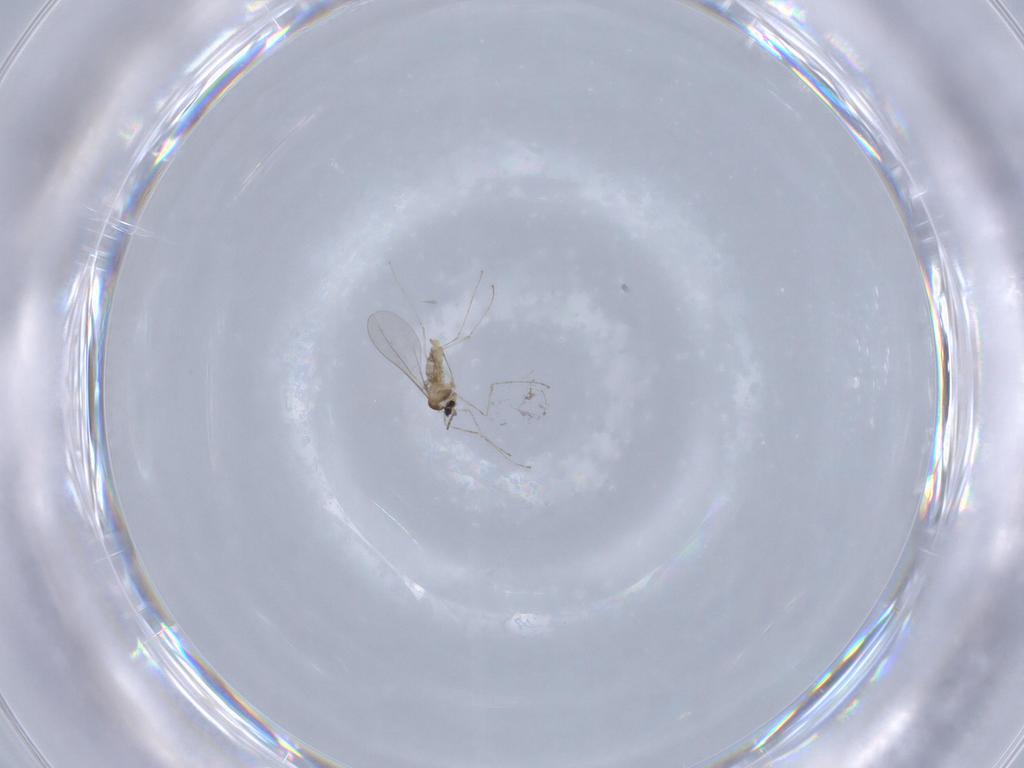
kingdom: Animalia
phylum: Arthropoda
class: Insecta
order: Diptera
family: Cecidomyiidae
